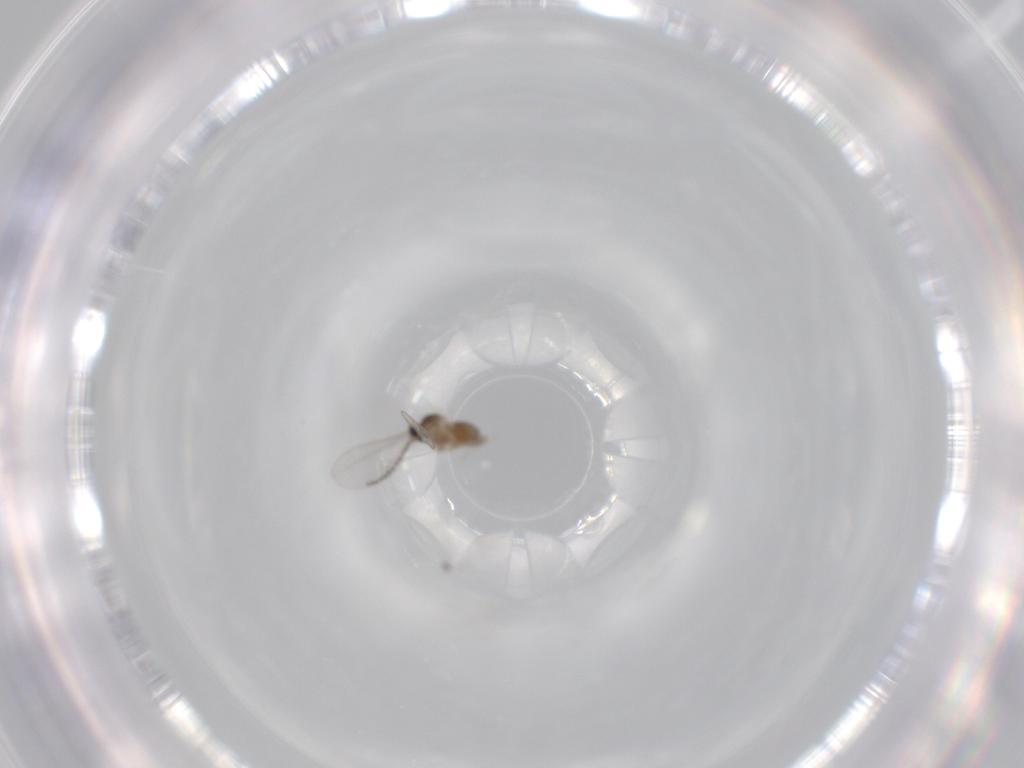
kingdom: Animalia
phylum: Arthropoda
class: Insecta
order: Diptera
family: Cecidomyiidae
